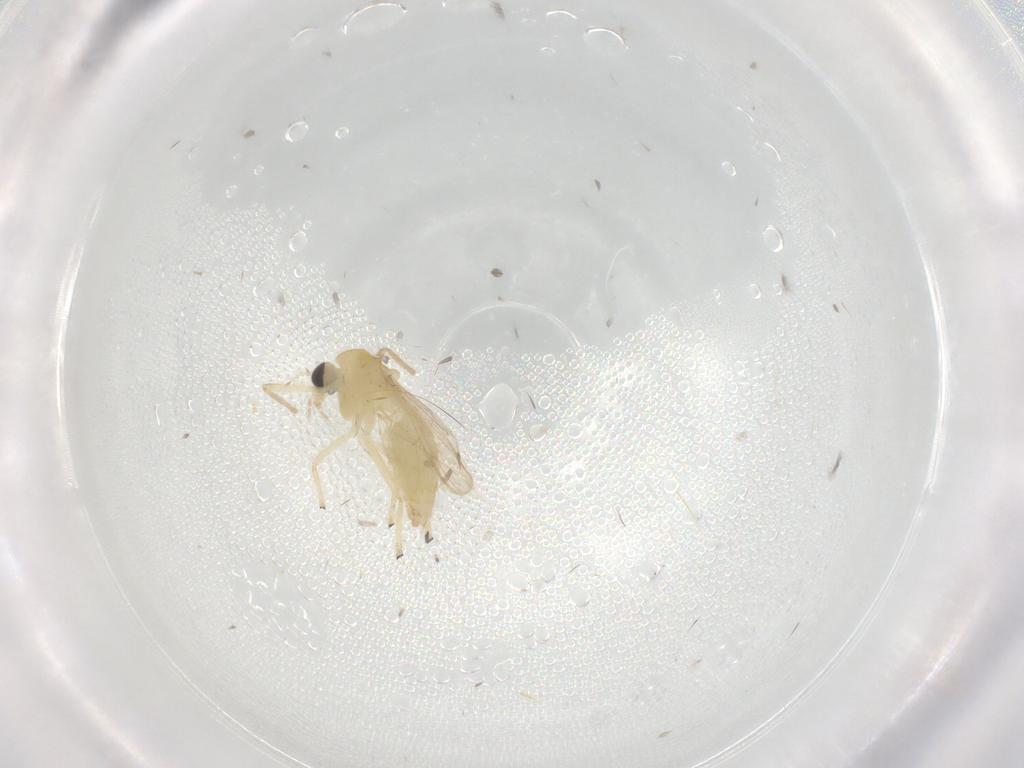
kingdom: Animalia
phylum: Arthropoda
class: Insecta
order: Diptera
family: Chironomidae
